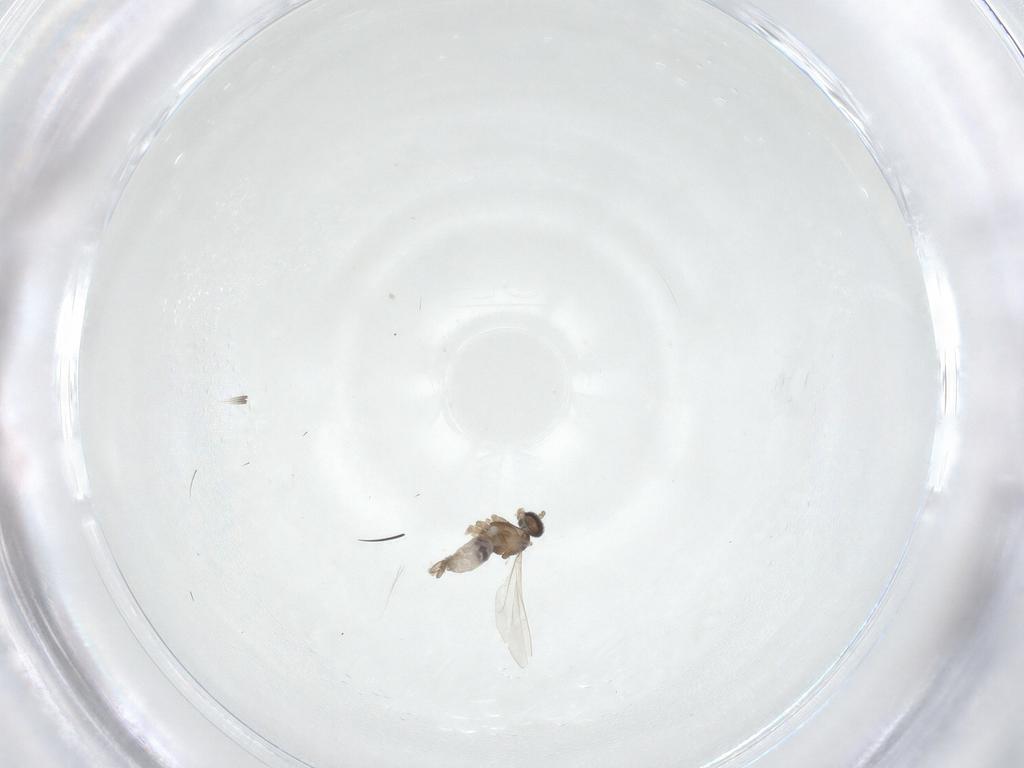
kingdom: Animalia
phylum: Arthropoda
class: Insecta
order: Diptera
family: Cecidomyiidae
